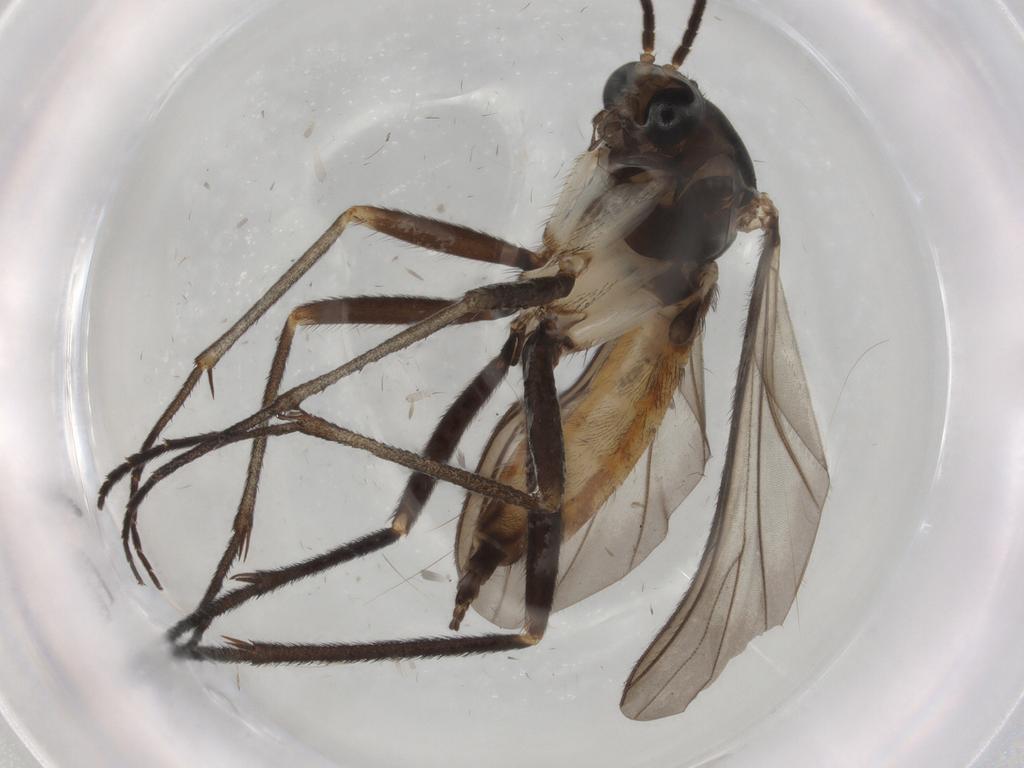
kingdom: Animalia
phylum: Arthropoda
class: Insecta
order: Diptera
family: Sciaridae
